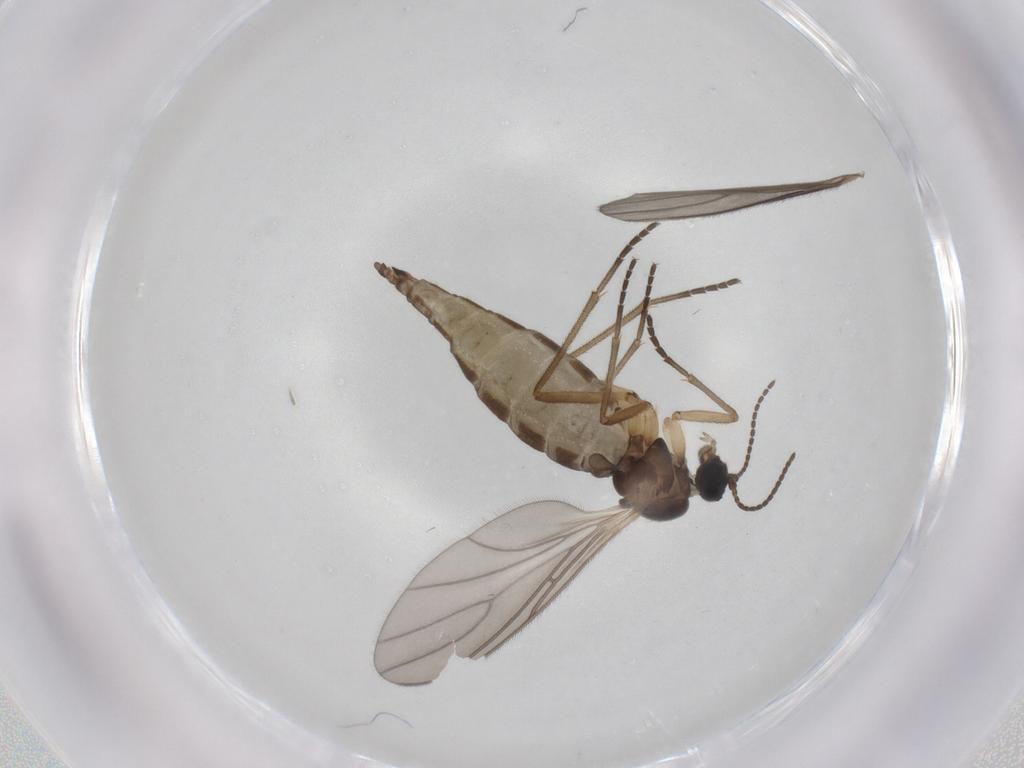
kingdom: Animalia
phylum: Arthropoda
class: Insecta
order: Diptera
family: Sciaridae
